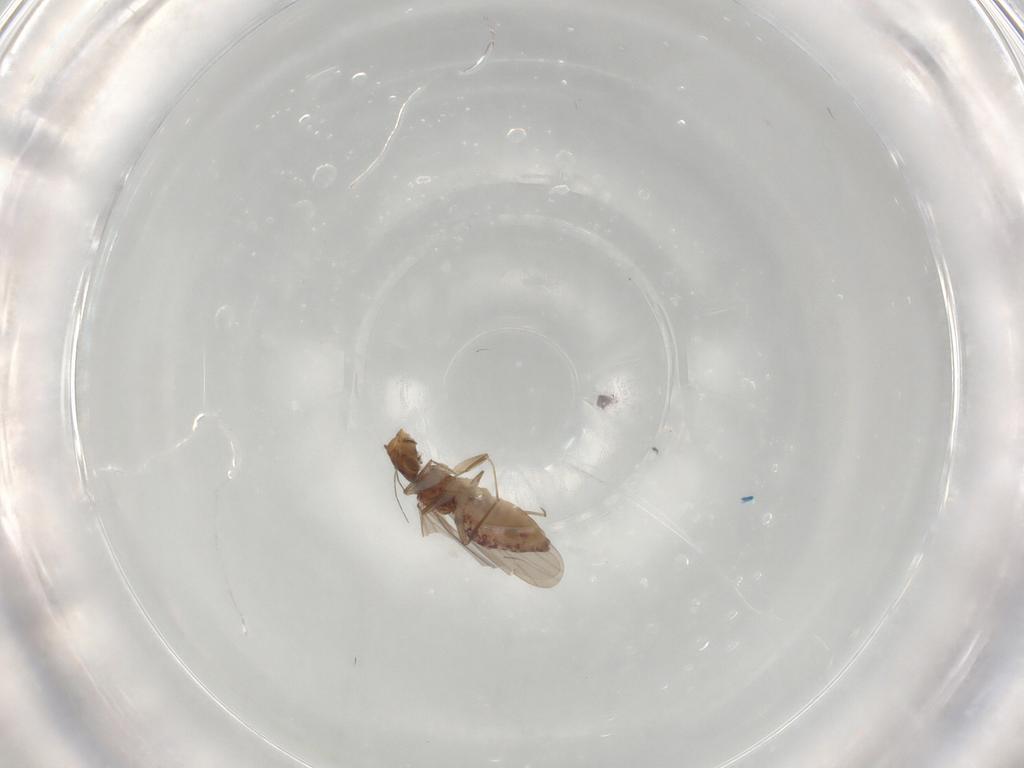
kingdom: Animalia
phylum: Arthropoda
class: Insecta
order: Psocodea
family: Lepidopsocidae
